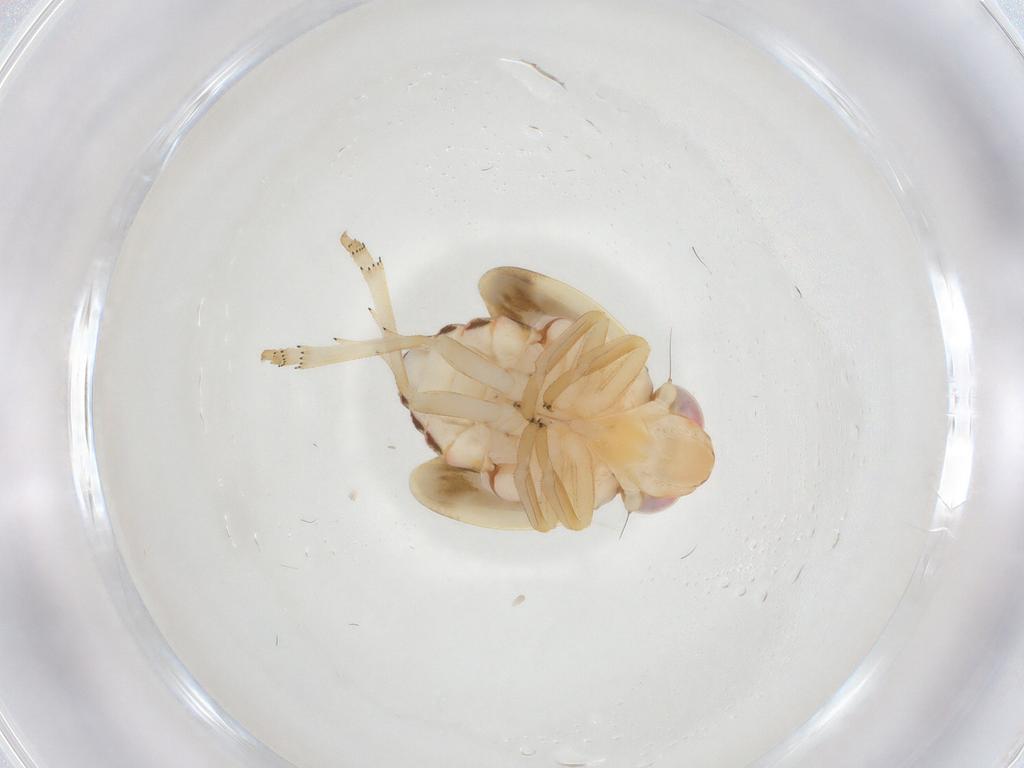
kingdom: Animalia
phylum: Arthropoda
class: Insecta
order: Hemiptera
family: Nogodinidae
